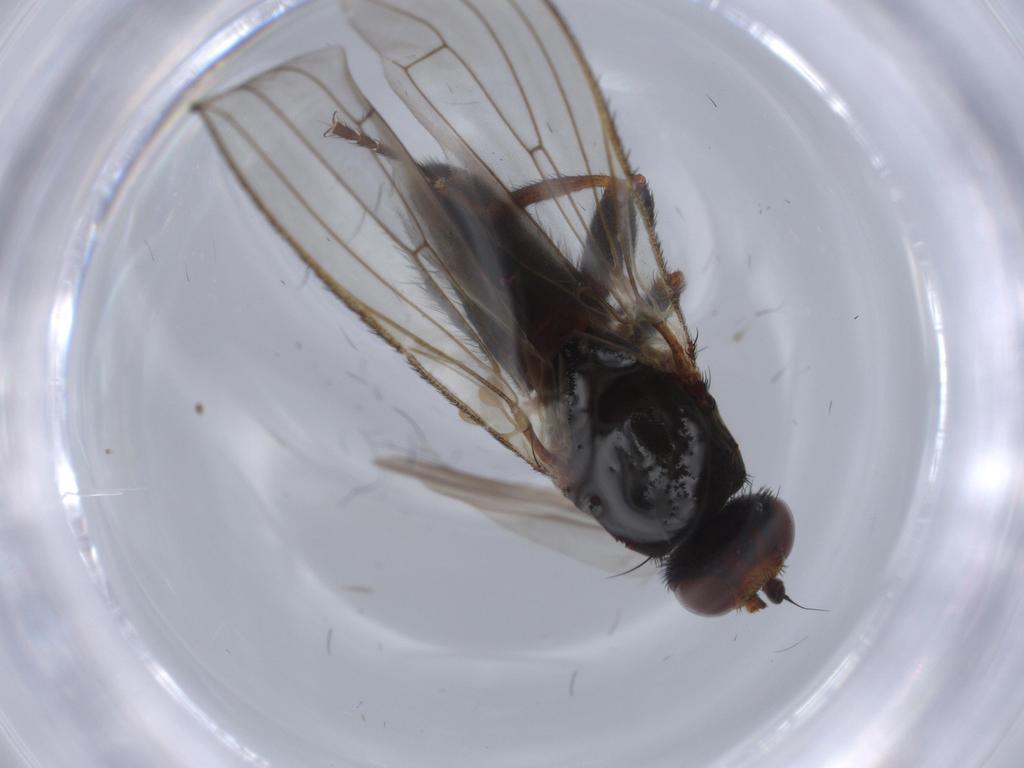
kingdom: Animalia
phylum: Arthropoda
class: Insecta
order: Diptera
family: Heleomyzidae
